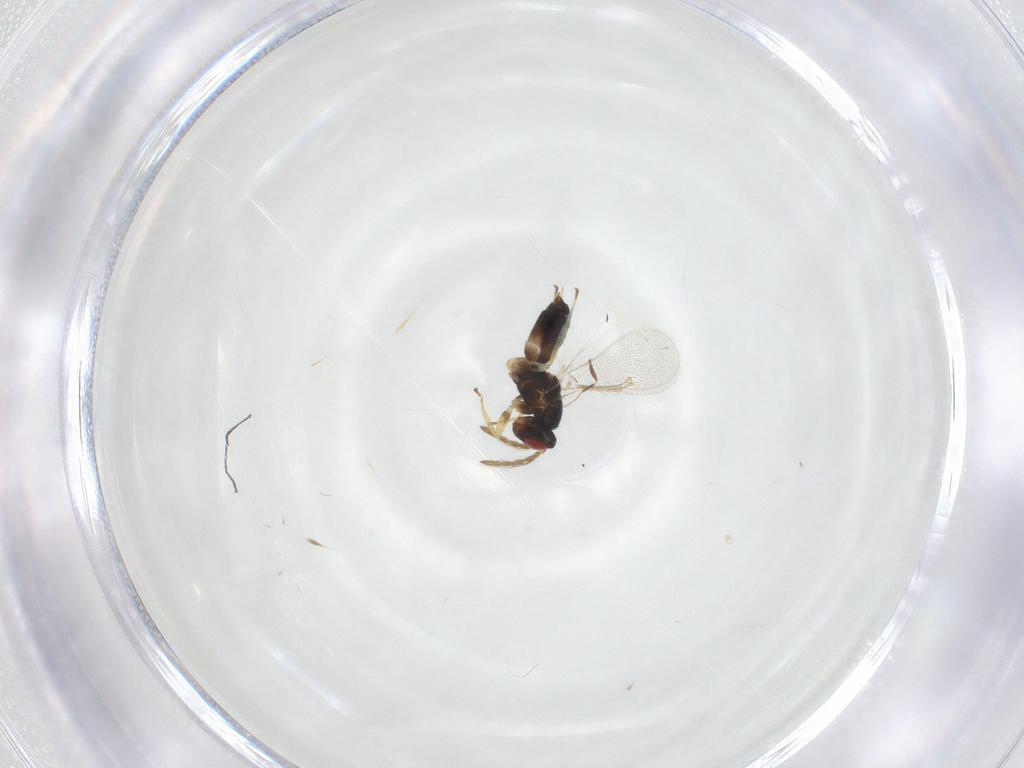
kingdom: Animalia
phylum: Arthropoda
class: Insecta
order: Hymenoptera
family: Eulophidae
